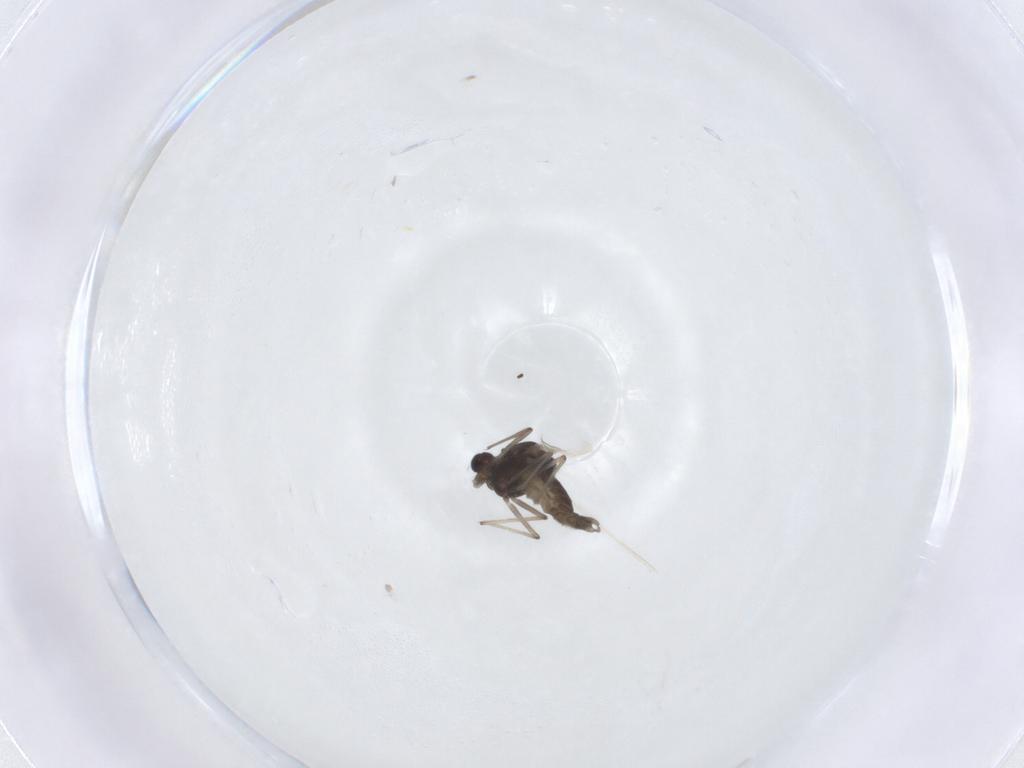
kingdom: Animalia
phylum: Arthropoda
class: Insecta
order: Diptera
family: Chironomidae
